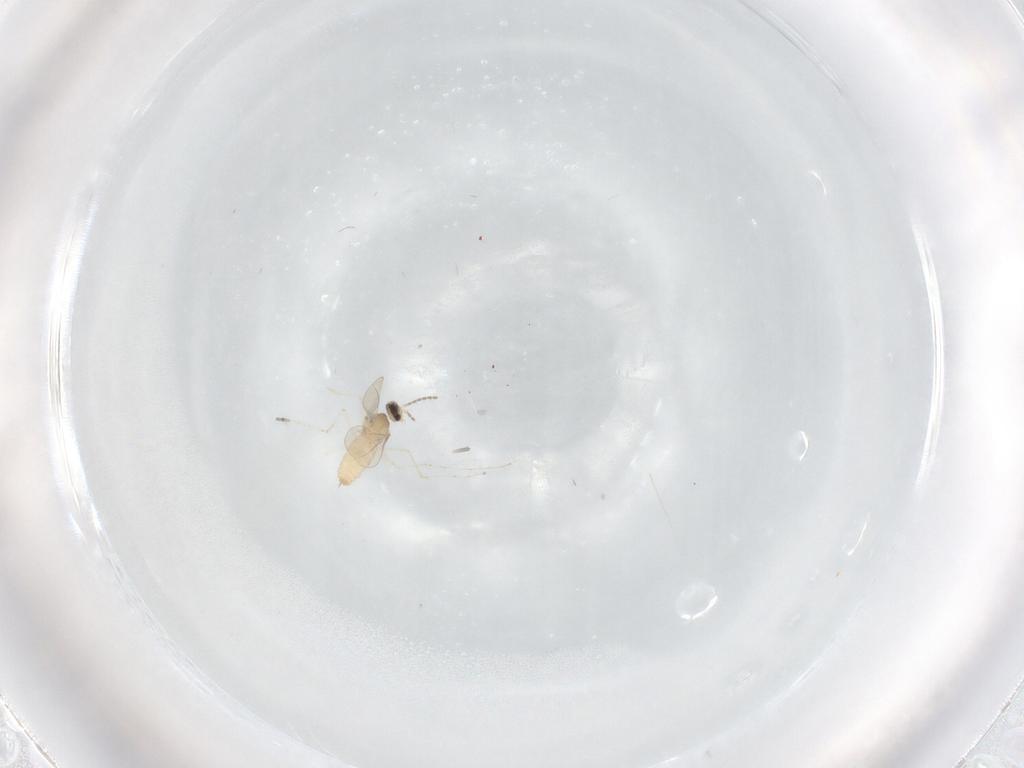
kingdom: Animalia
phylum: Arthropoda
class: Insecta
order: Diptera
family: Cecidomyiidae
